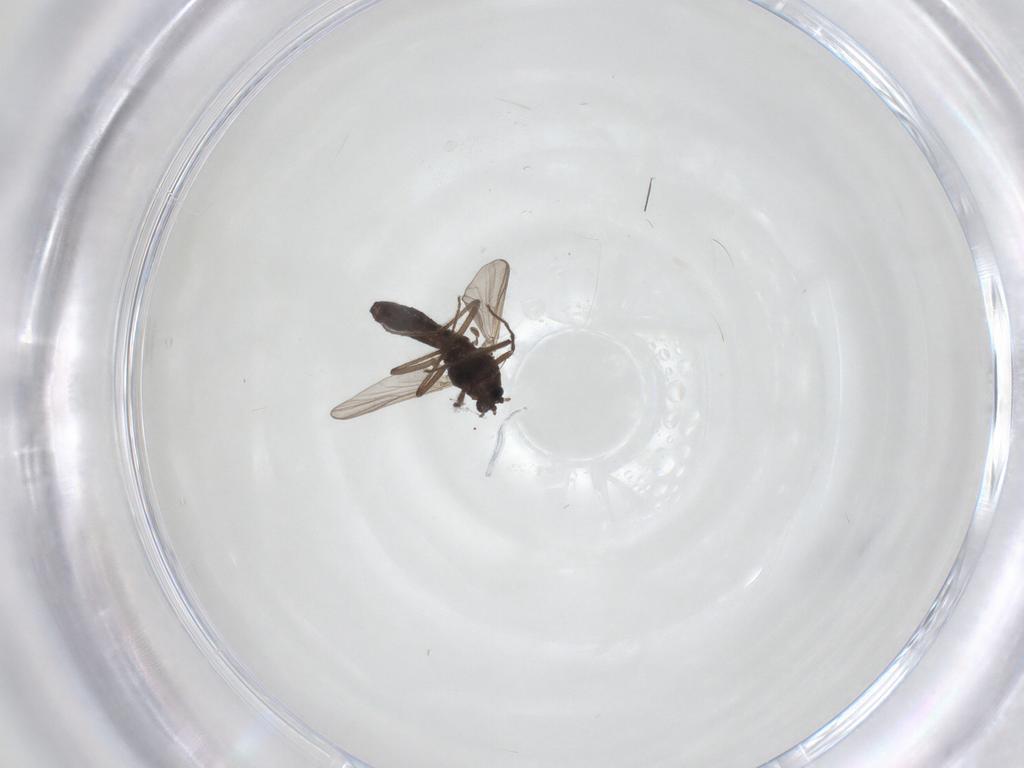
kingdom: Animalia
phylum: Arthropoda
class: Insecta
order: Diptera
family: Chironomidae
